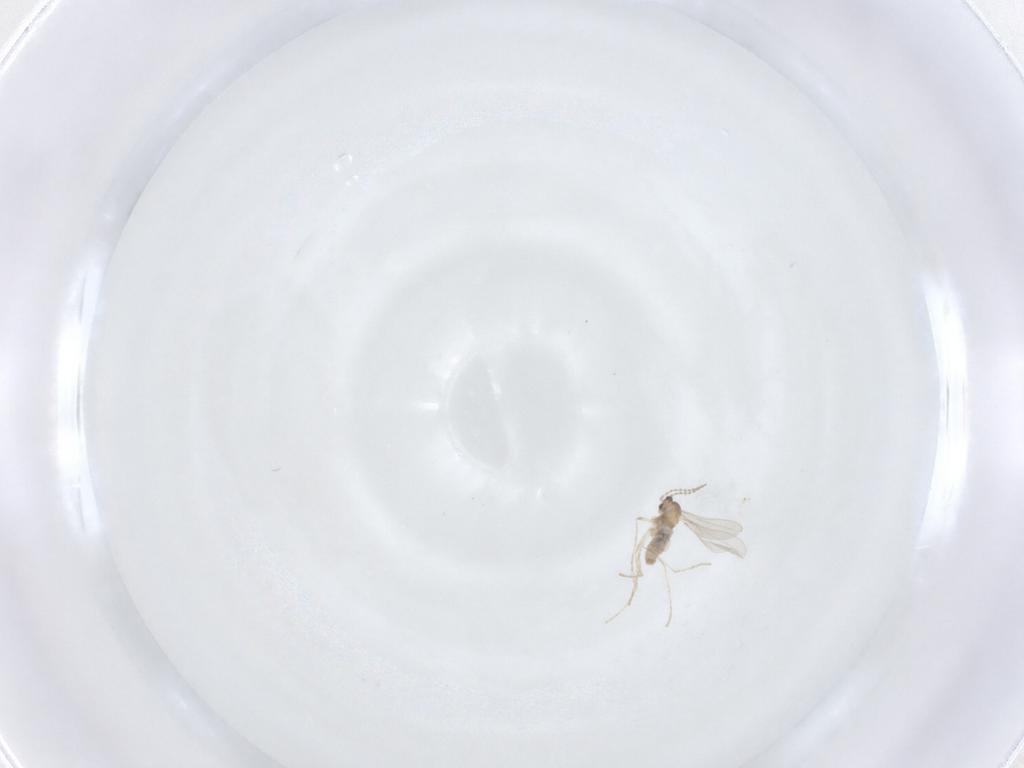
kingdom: Animalia
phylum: Arthropoda
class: Insecta
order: Diptera
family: Cecidomyiidae
